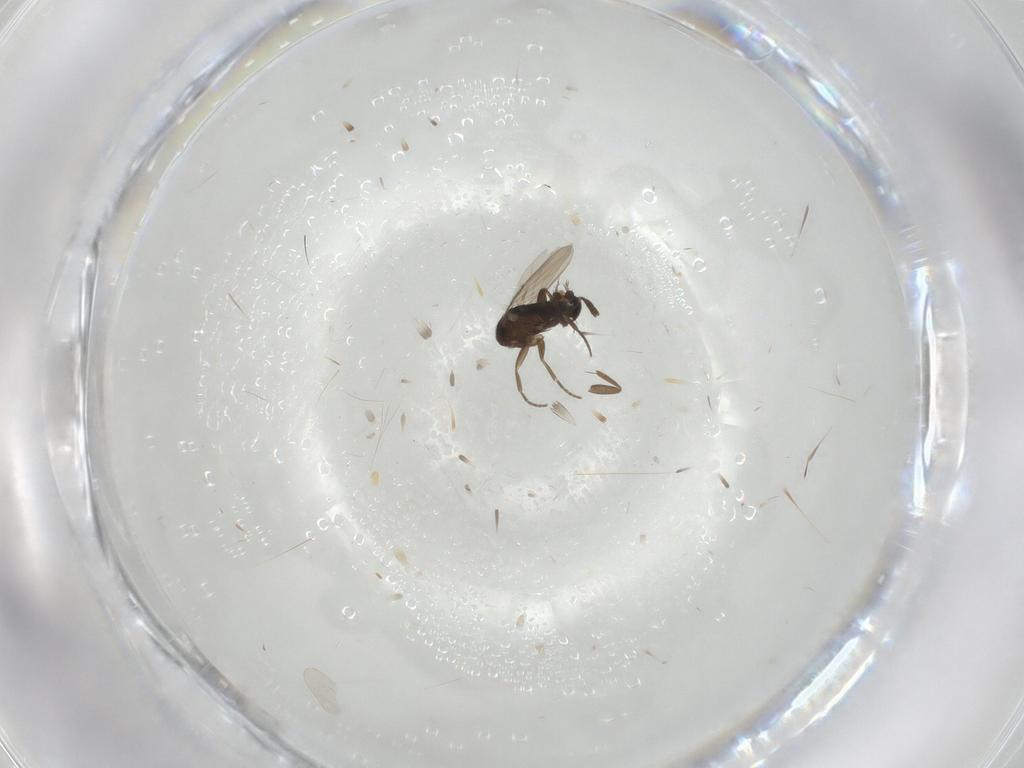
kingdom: Animalia
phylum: Arthropoda
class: Insecta
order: Diptera
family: Phoridae
